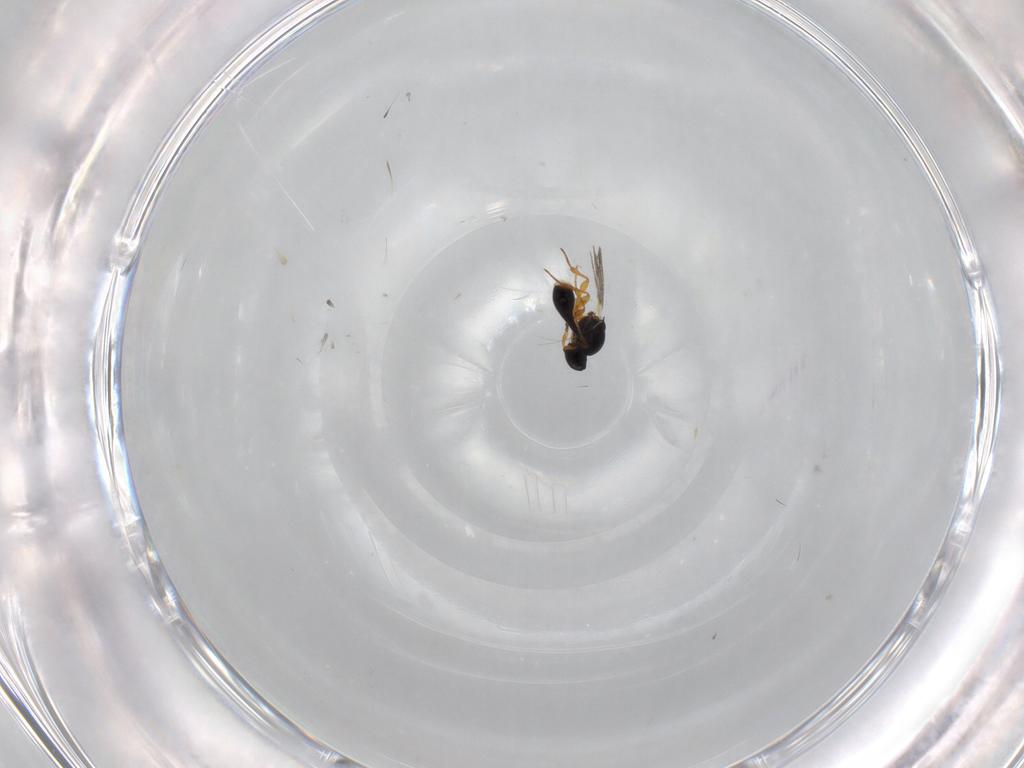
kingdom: Animalia
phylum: Arthropoda
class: Insecta
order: Hymenoptera
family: Platygastridae
